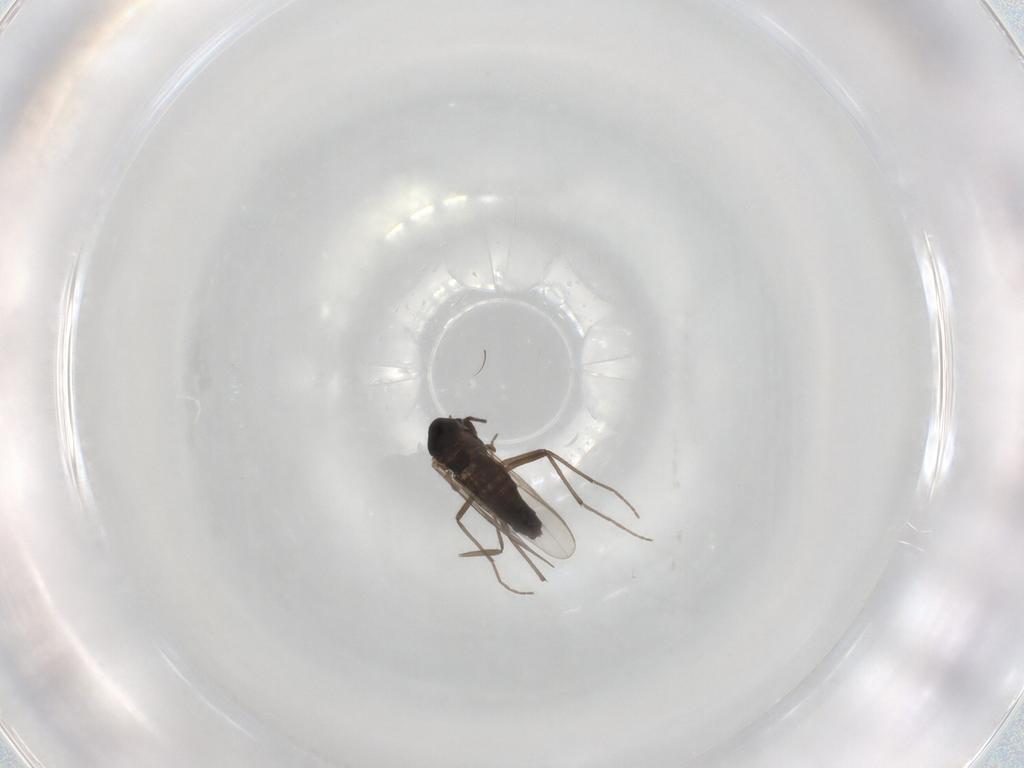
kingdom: Animalia
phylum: Arthropoda
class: Insecta
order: Diptera
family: Chironomidae
